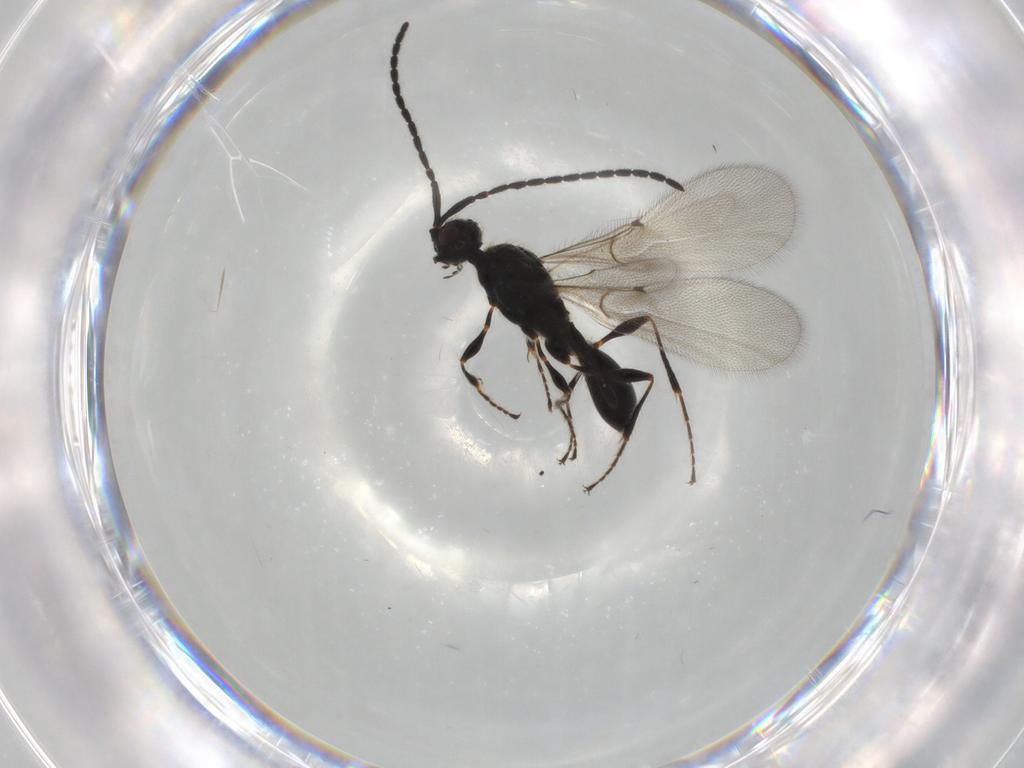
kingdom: Animalia
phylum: Arthropoda
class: Insecta
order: Hymenoptera
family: Diapriidae
